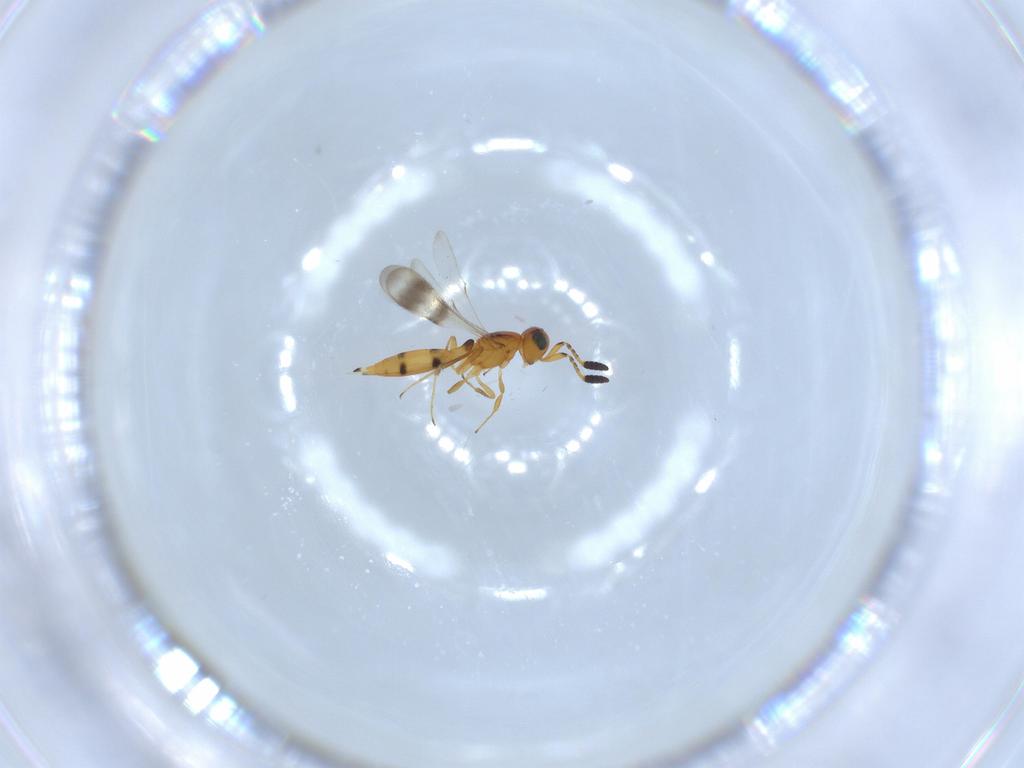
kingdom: Animalia
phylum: Arthropoda
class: Insecta
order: Hymenoptera
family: Scelionidae
